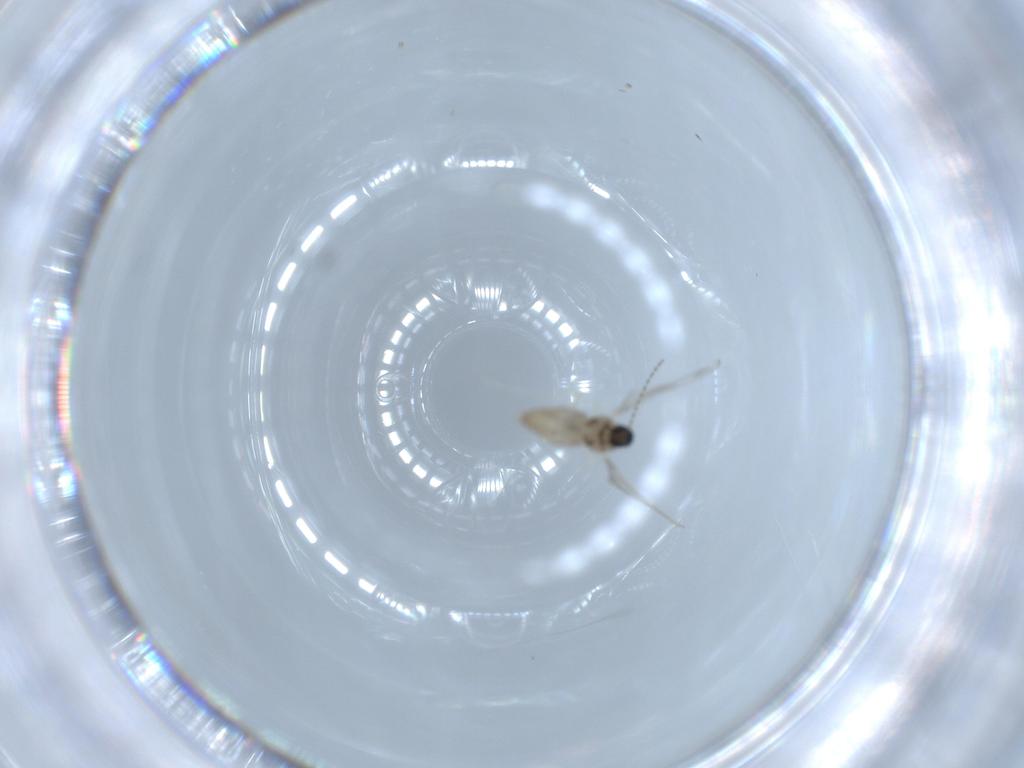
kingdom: Animalia
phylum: Arthropoda
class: Insecta
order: Diptera
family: Cecidomyiidae
